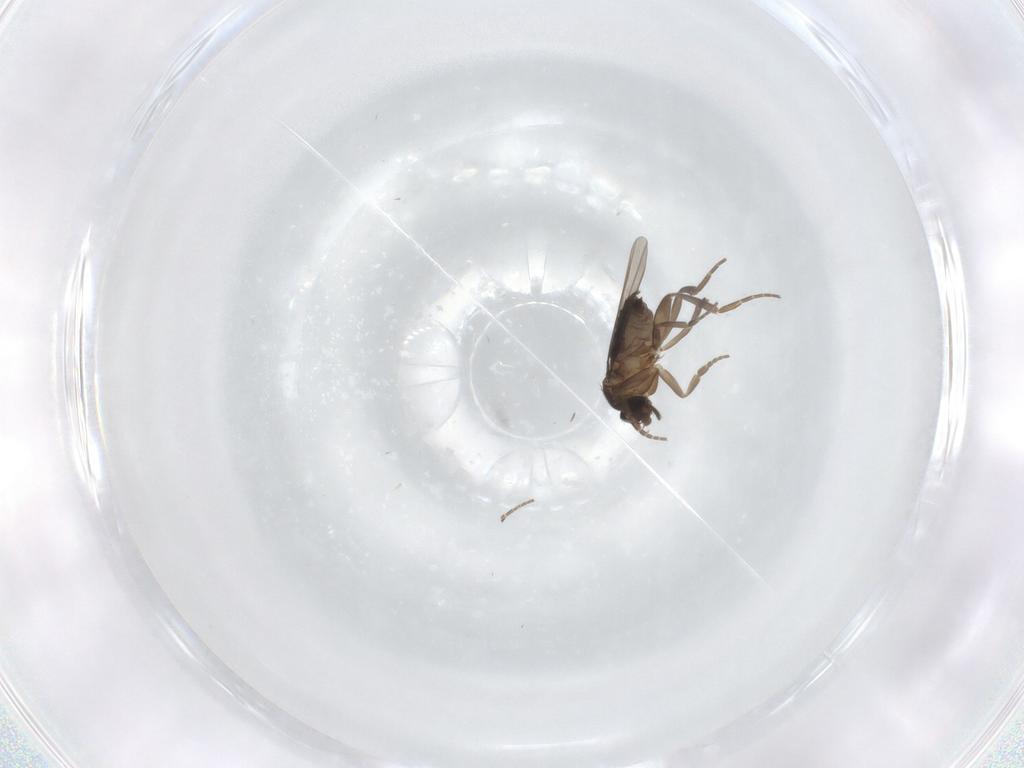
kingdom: Animalia
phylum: Arthropoda
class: Insecta
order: Diptera
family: Phoridae
